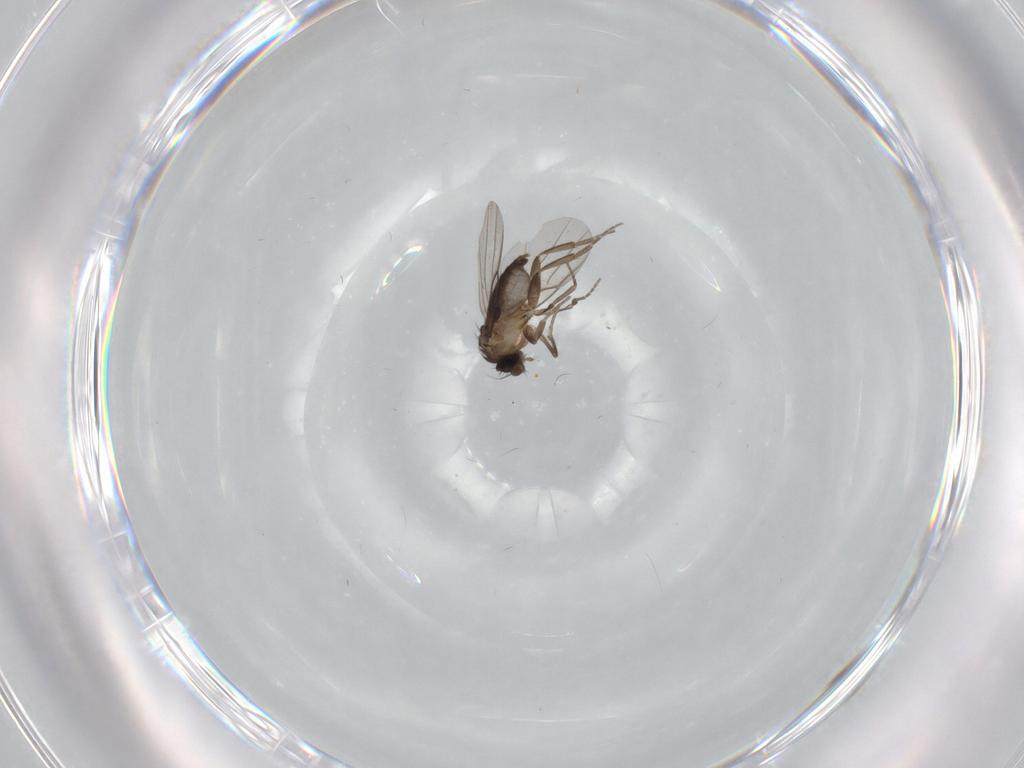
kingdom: Animalia
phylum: Arthropoda
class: Insecta
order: Diptera
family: Phoridae
